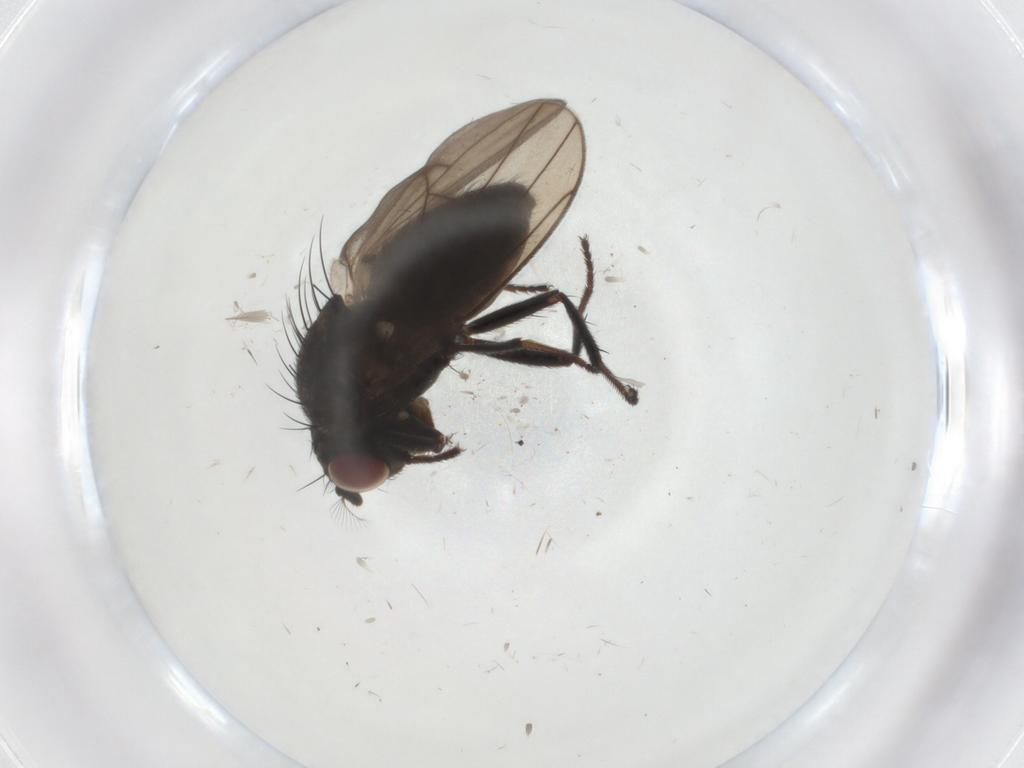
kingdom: Animalia
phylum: Arthropoda
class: Insecta
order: Diptera
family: Ephydridae
